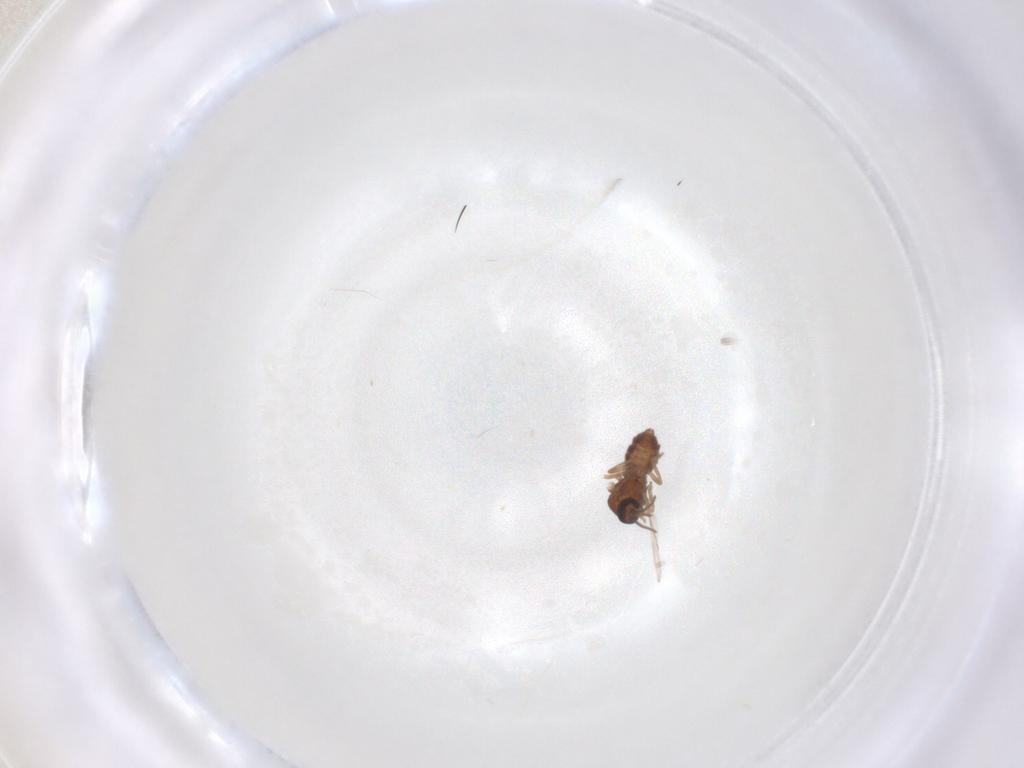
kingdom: Animalia
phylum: Arthropoda
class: Insecta
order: Diptera
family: Ceratopogonidae
